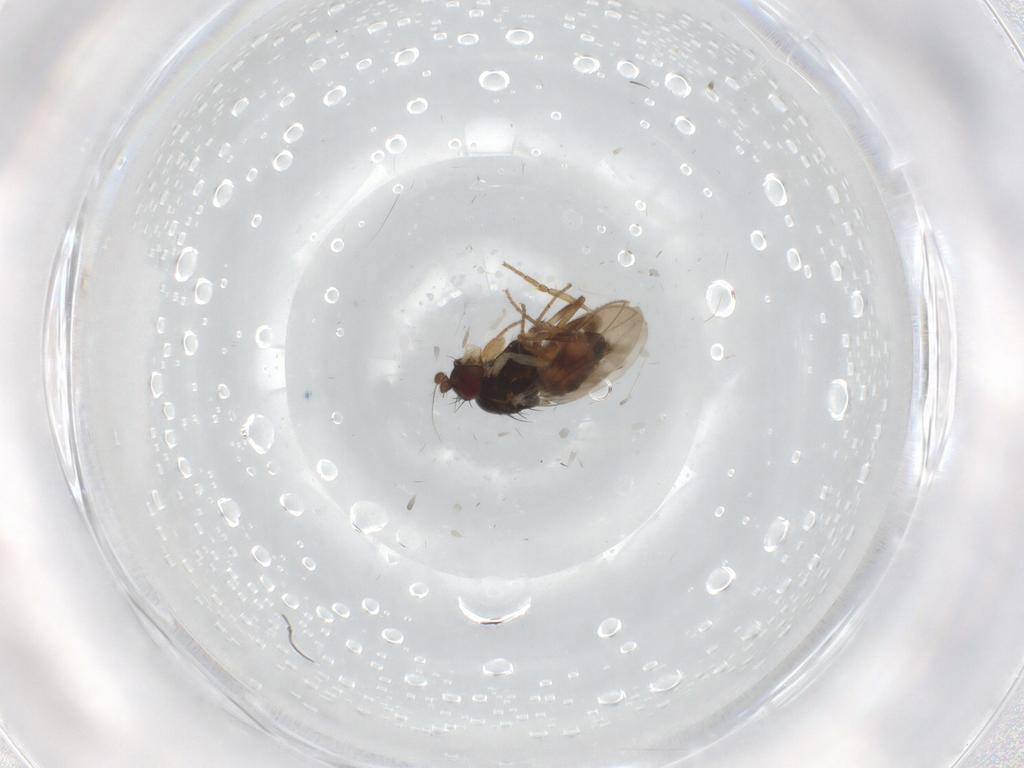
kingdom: Animalia
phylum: Arthropoda
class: Insecta
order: Diptera
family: Sphaeroceridae
